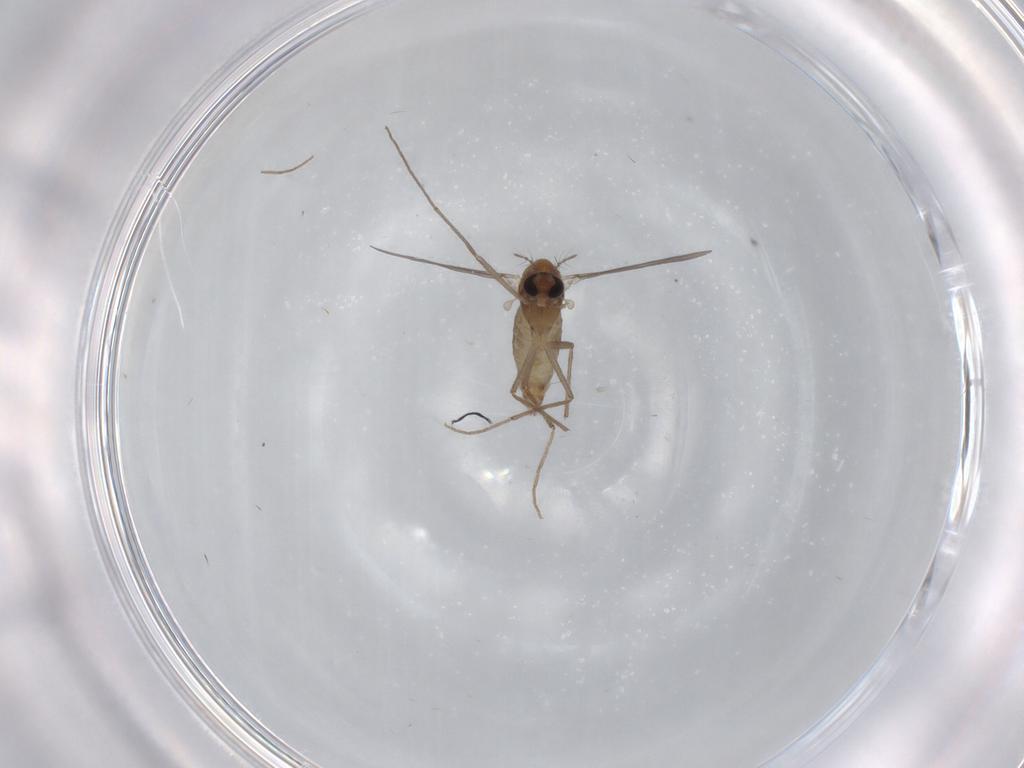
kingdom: Animalia
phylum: Arthropoda
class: Insecta
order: Diptera
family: Chironomidae
